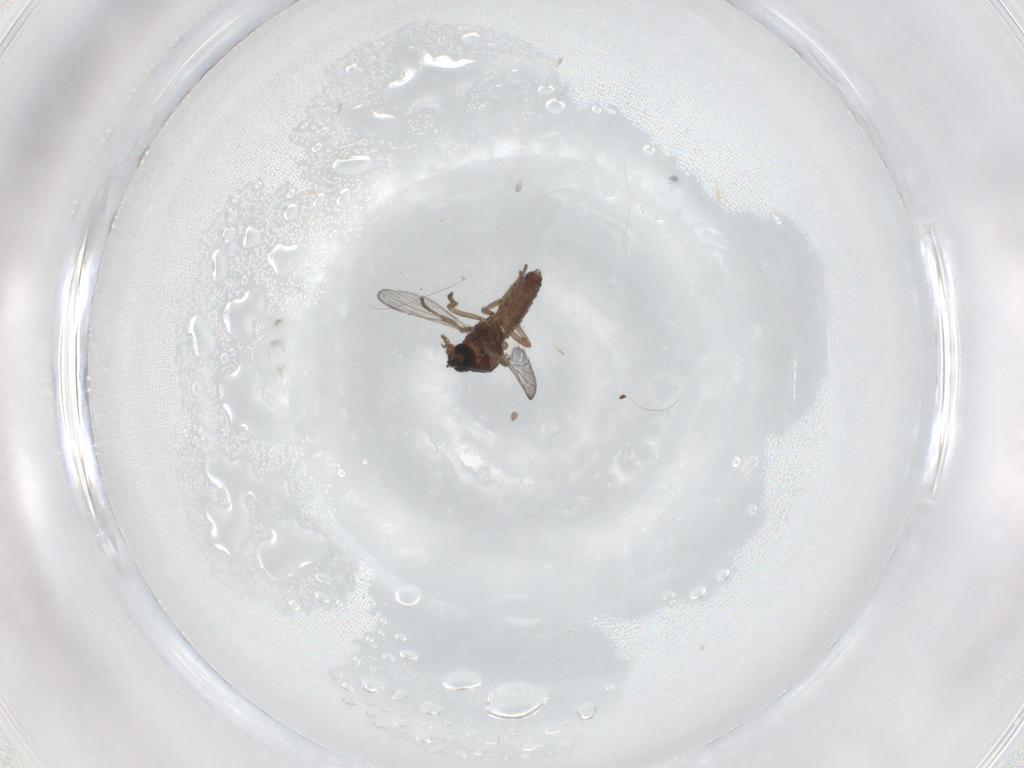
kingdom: Animalia
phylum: Arthropoda
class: Insecta
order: Diptera
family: Ceratopogonidae
